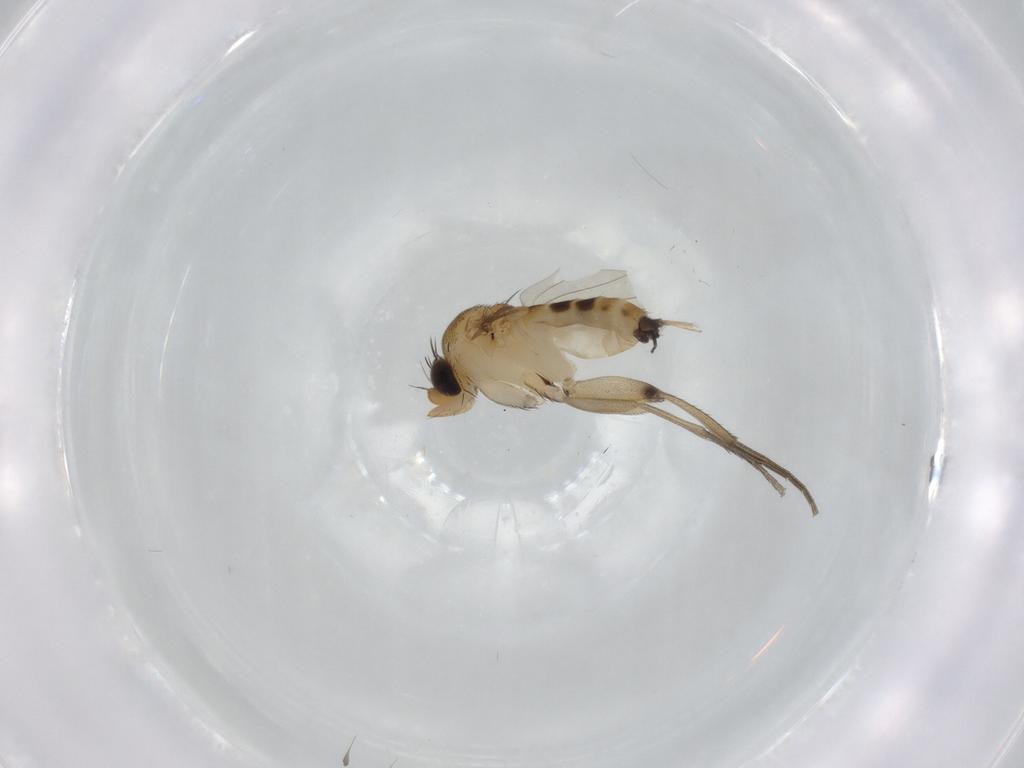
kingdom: Animalia
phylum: Arthropoda
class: Insecta
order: Diptera
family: Phoridae
